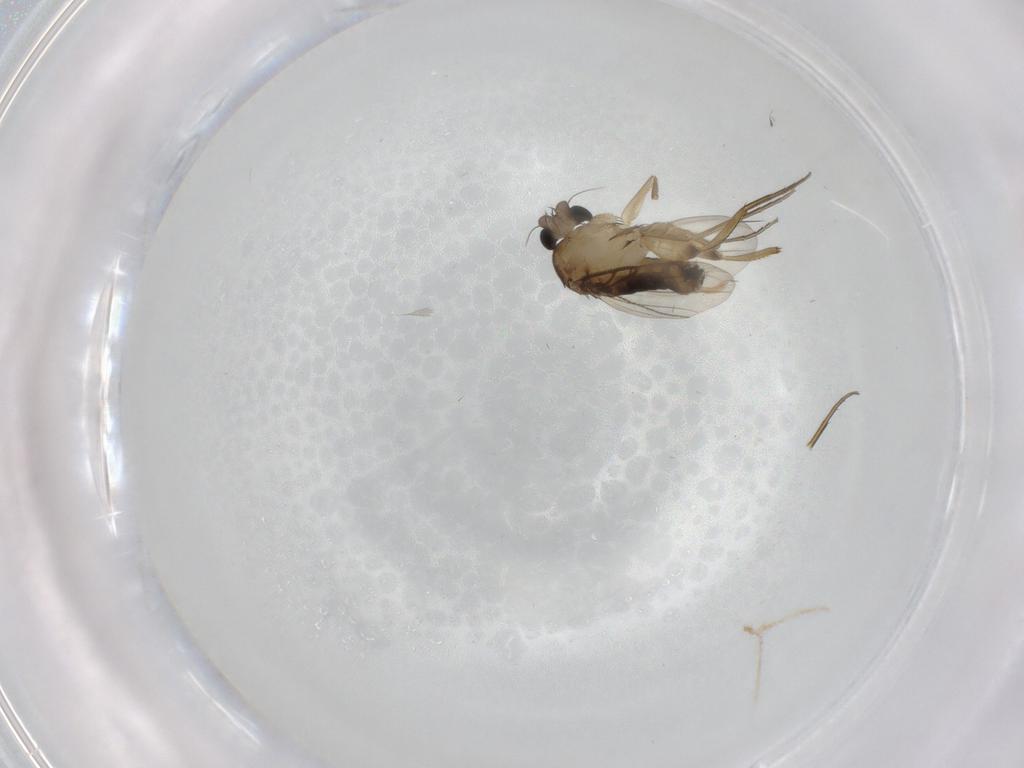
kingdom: Animalia
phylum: Arthropoda
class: Insecta
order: Diptera
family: Phoridae
